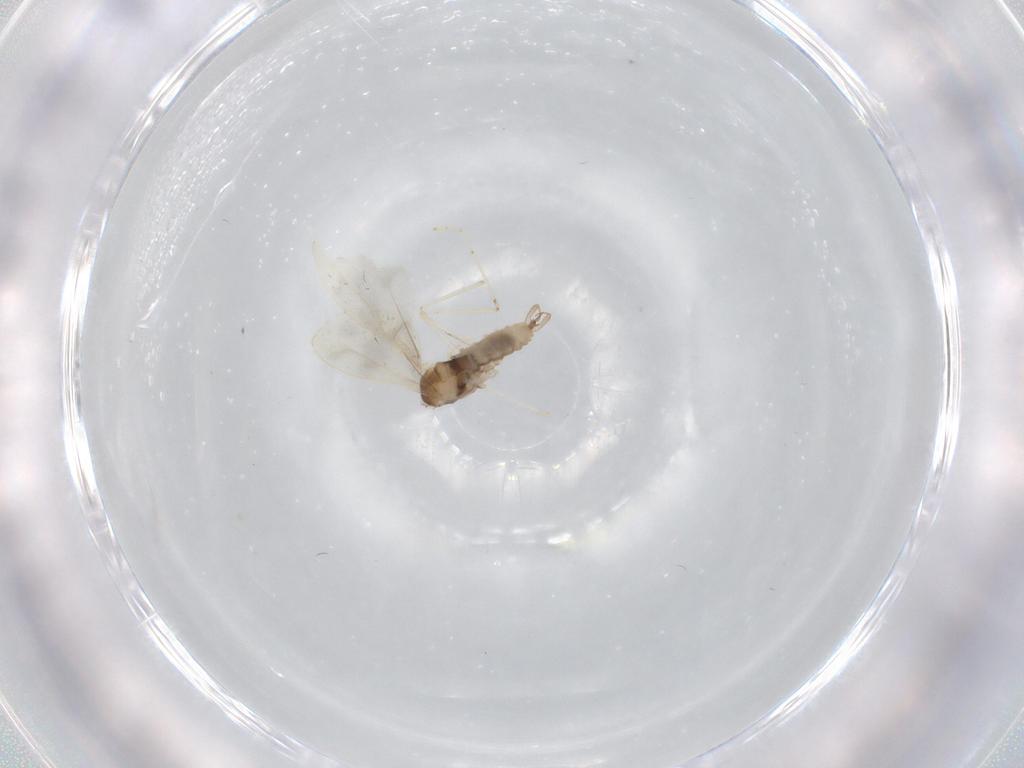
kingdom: Animalia
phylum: Arthropoda
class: Insecta
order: Diptera
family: Cecidomyiidae
